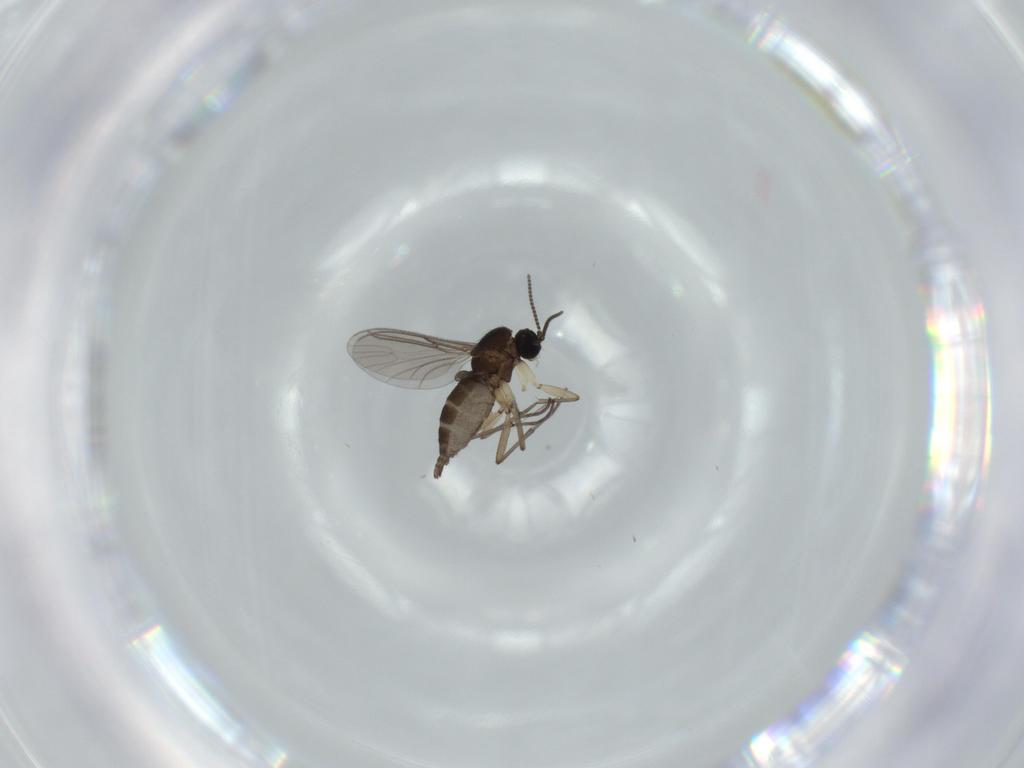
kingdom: Animalia
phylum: Arthropoda
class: Insecta
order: Diptera
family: Sciaridae
